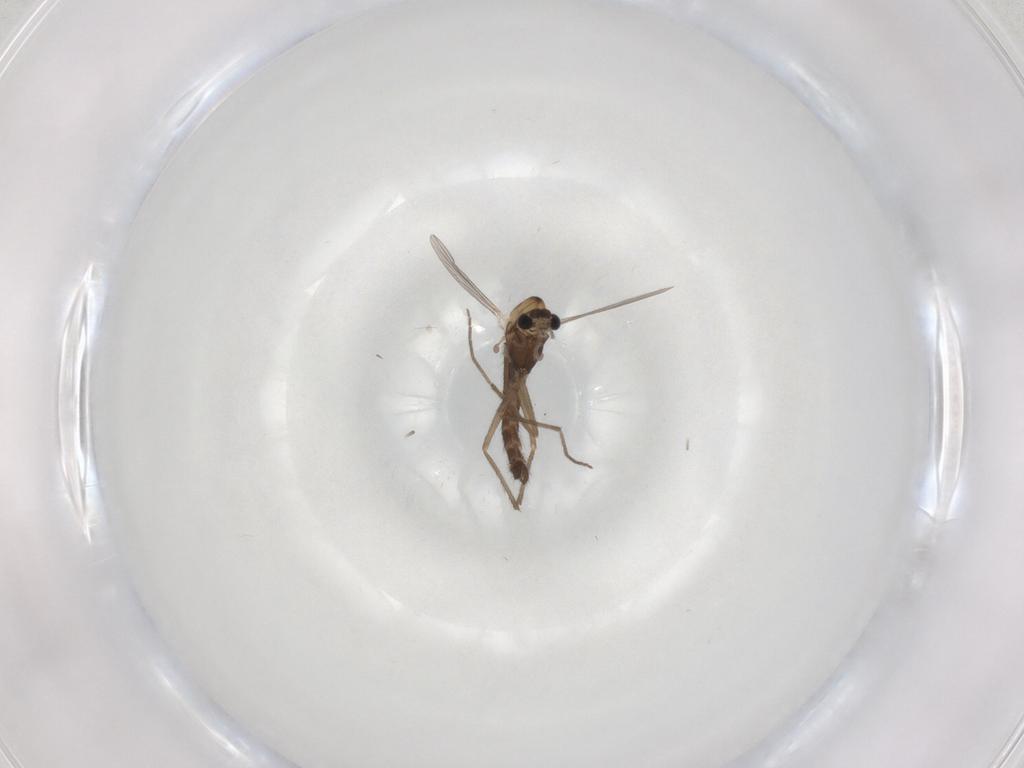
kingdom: Animalia
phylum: Arthropoda
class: Insecta
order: Diptera
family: Chironomidae
